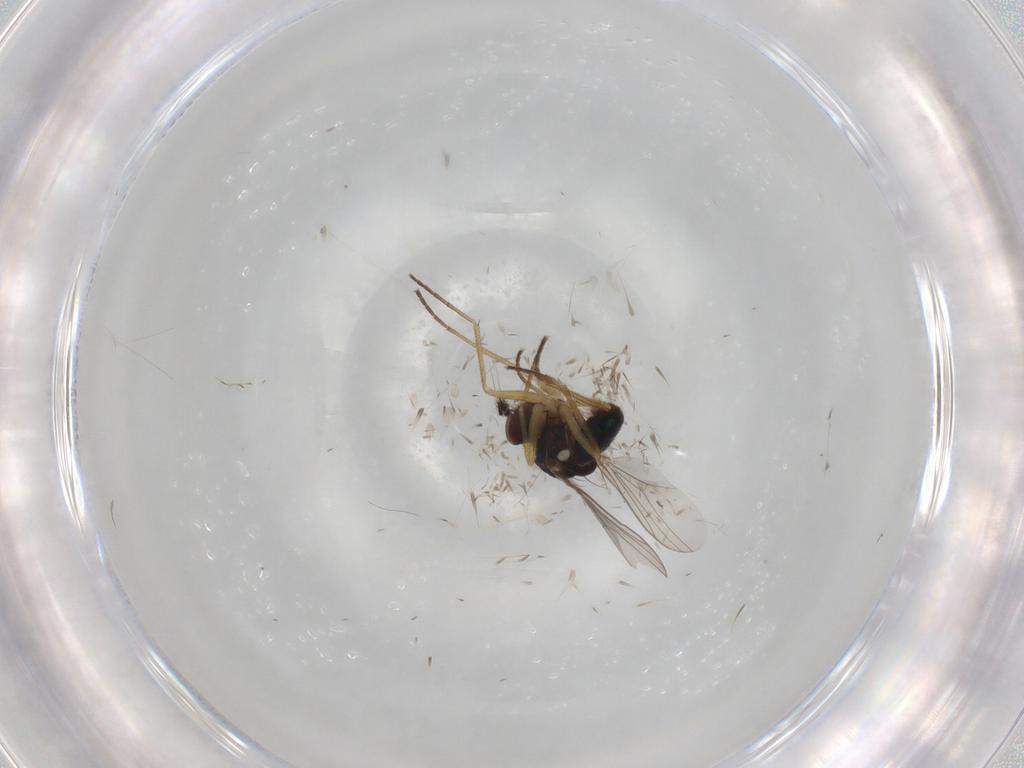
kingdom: Animalia
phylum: Arthropoda
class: Insecta
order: Diptera
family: Dolichopodidae
